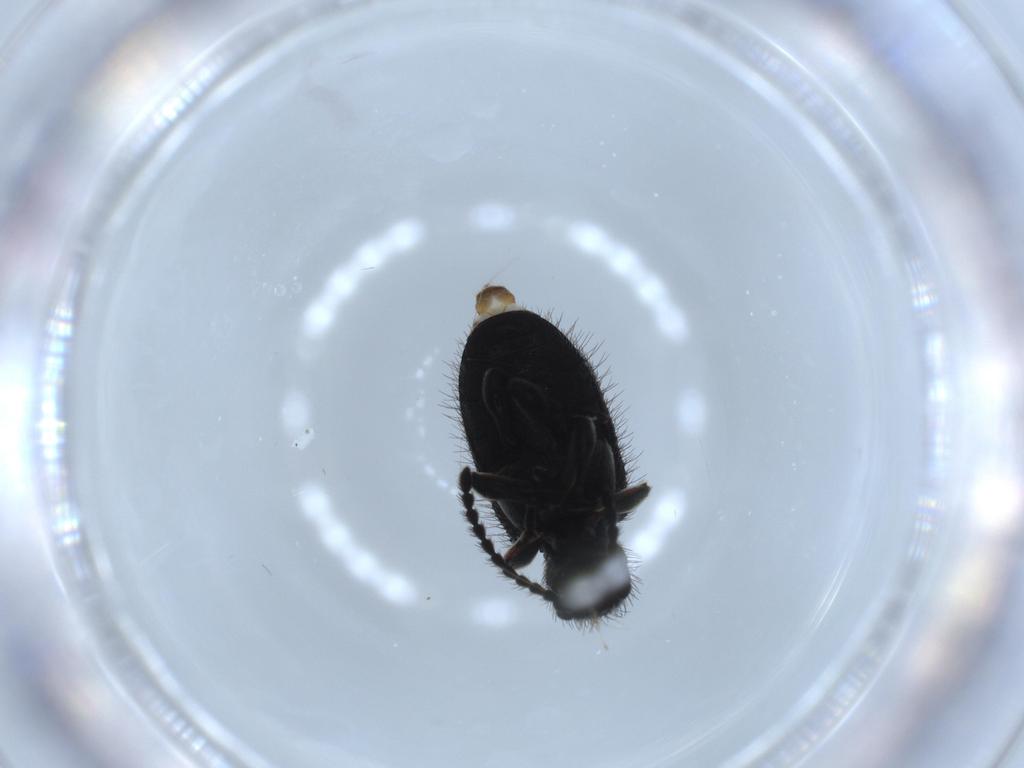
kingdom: Animalia
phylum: Arthropoda
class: Insecta
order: Coleoptera
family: Ptinidae
